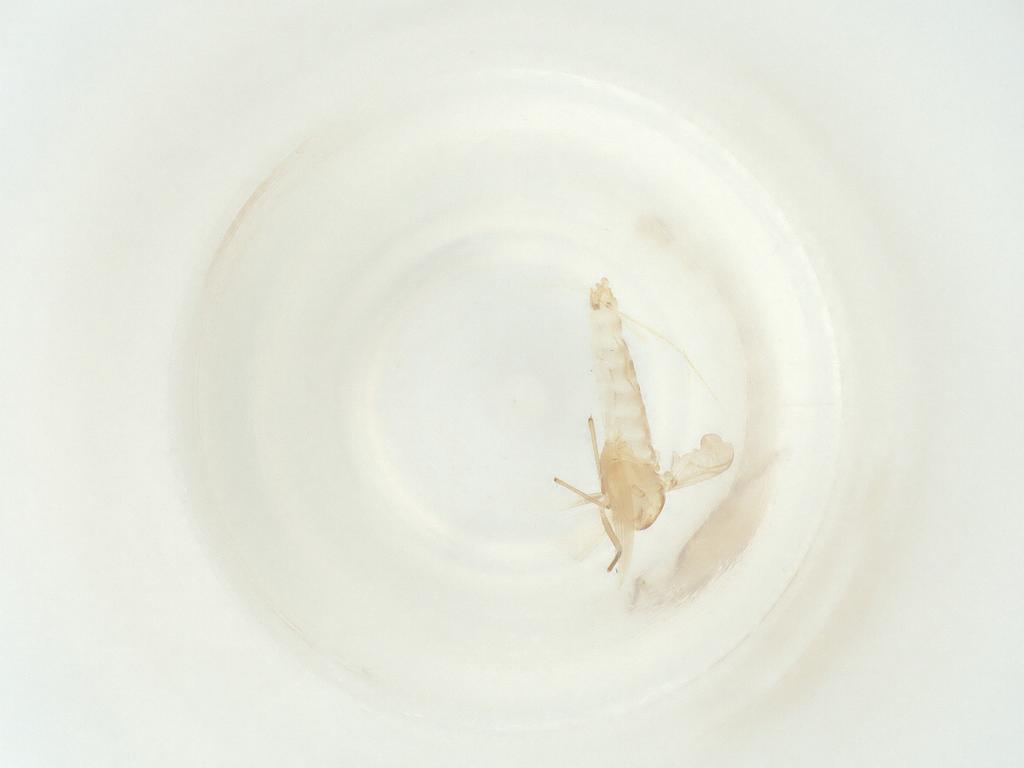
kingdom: Animalia
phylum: Arthropoda
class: Insecta
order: Diptera
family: Chironomidae
